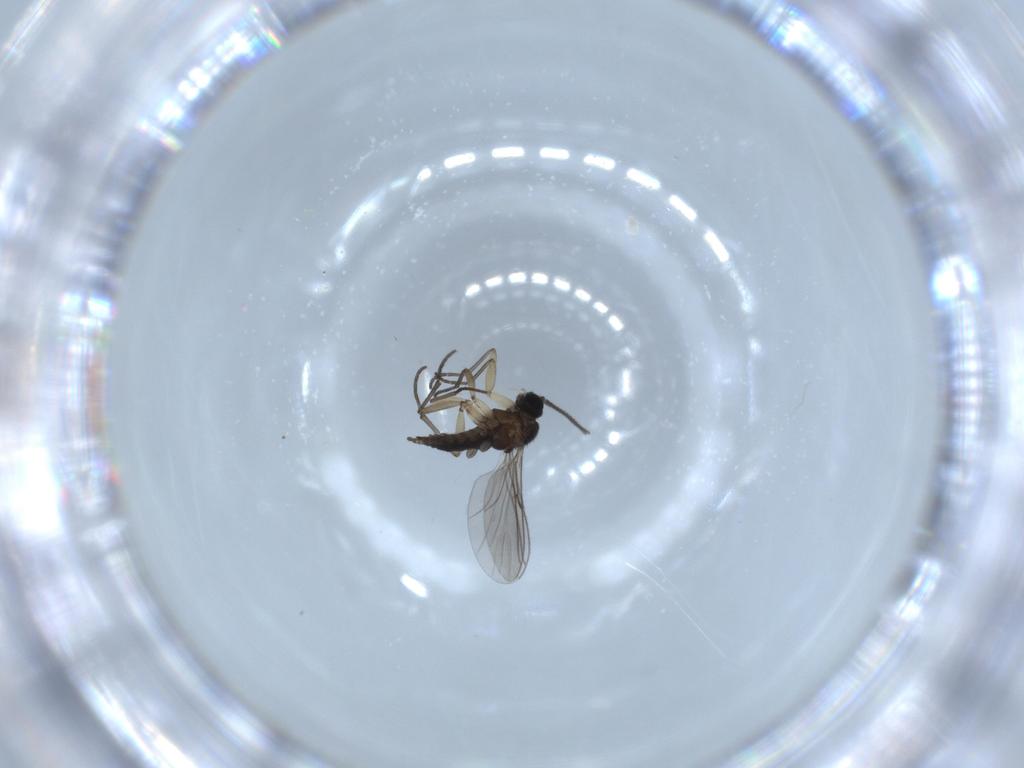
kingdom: Animalia
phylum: Arthropoda
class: Insecta
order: Diptera
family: Sciaridae
